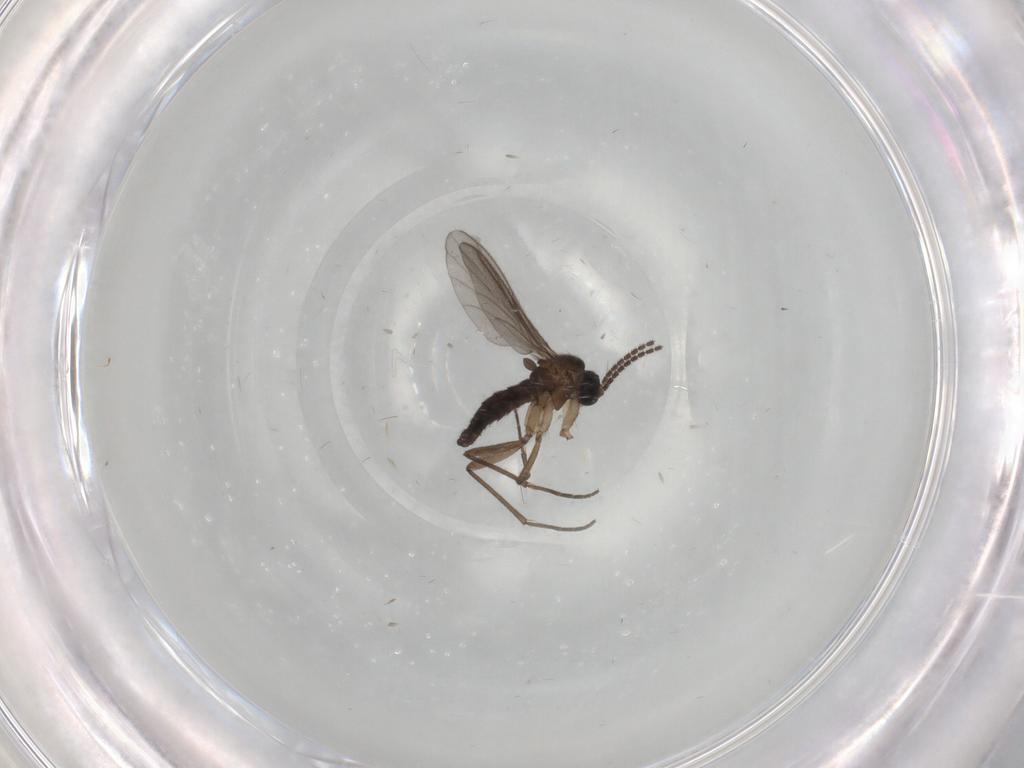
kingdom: Animalia
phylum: Arthropoda
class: Insecta
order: Diptera
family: Sciaridae
